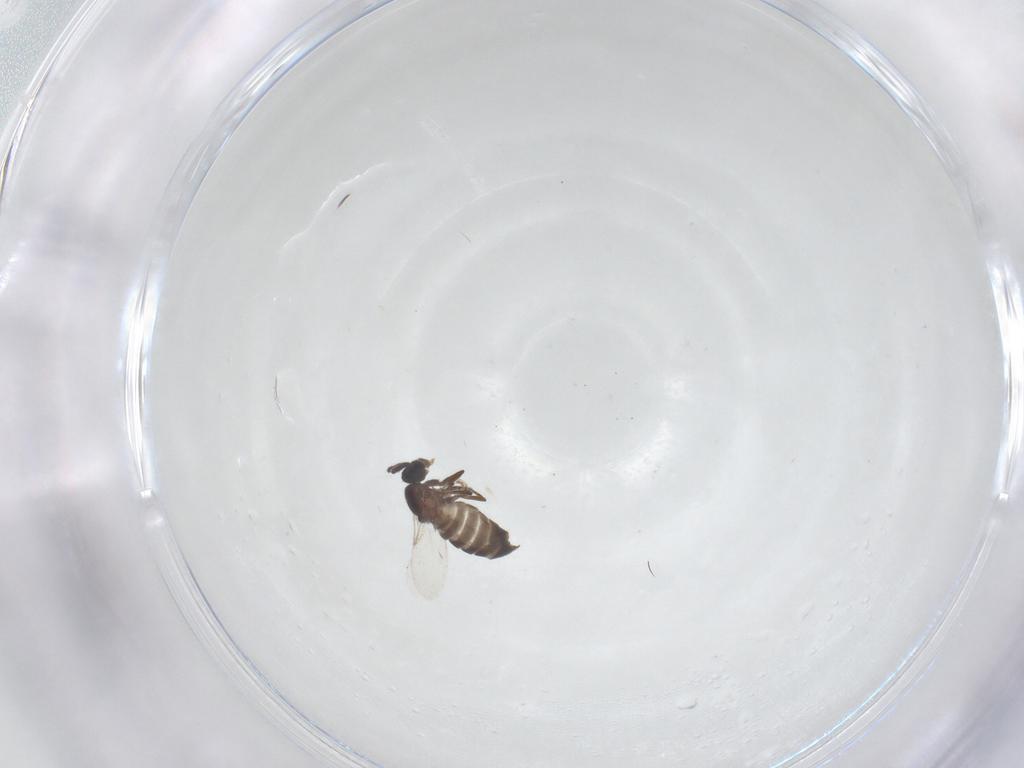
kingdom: Animalia
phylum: Arthropoda
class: Insecta
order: Diptera
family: Scatopsidae
